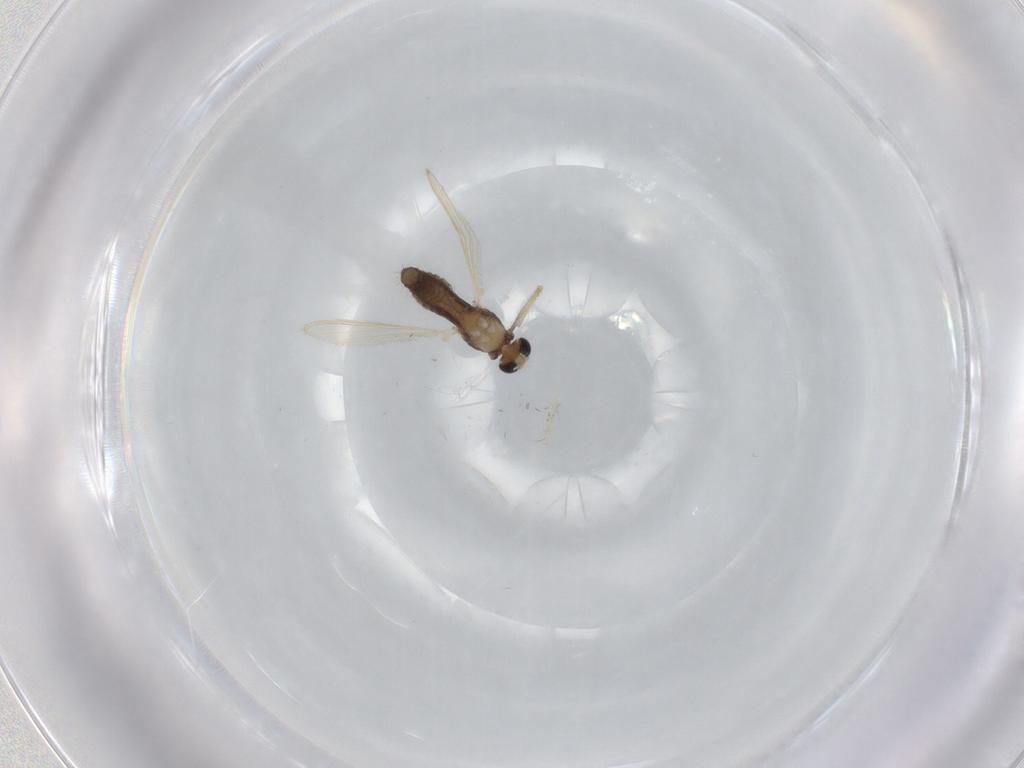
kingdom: Animalia
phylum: Arthropoda
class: Insecta
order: Diptera
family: Chironomidae
